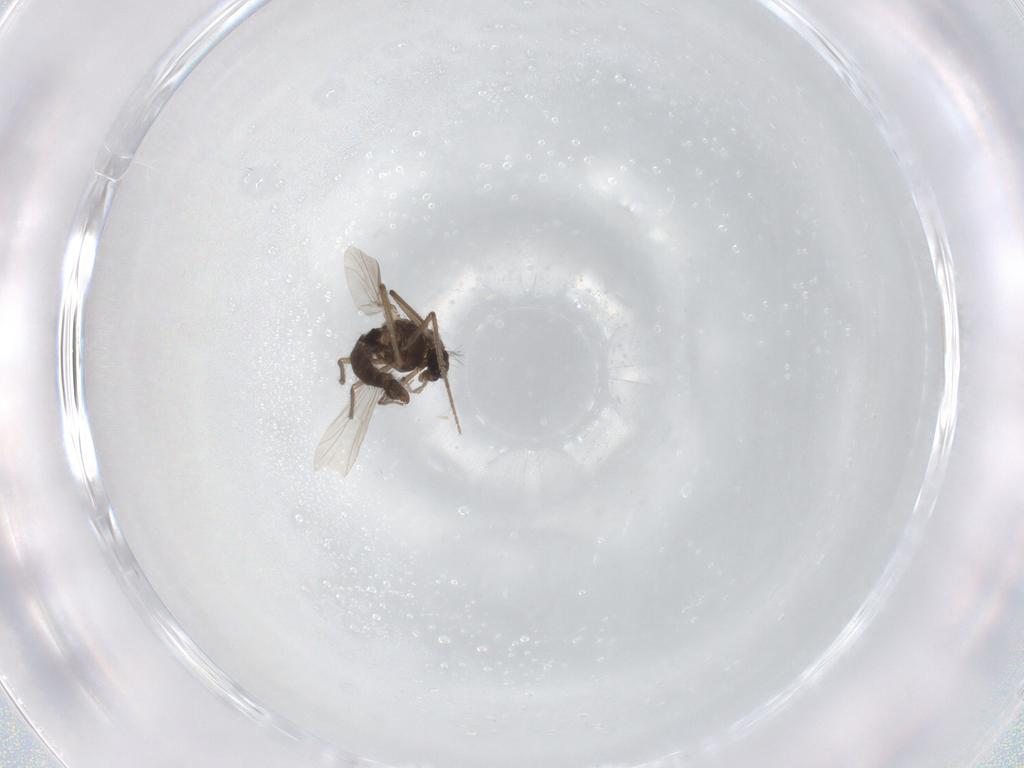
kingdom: Animalia
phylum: Arthropoda
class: Insecta
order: Diptera
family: Chironomidae
